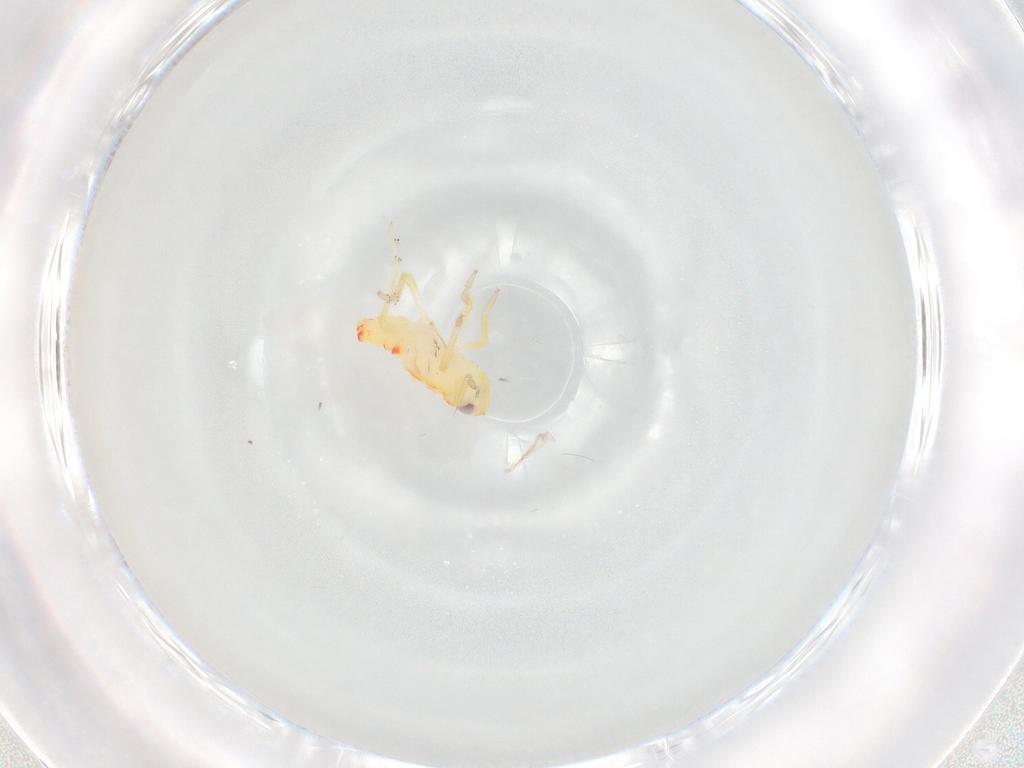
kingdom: Animalia
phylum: Arthropoda
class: Insecta
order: Hemiptera
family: Tropiduchidae
